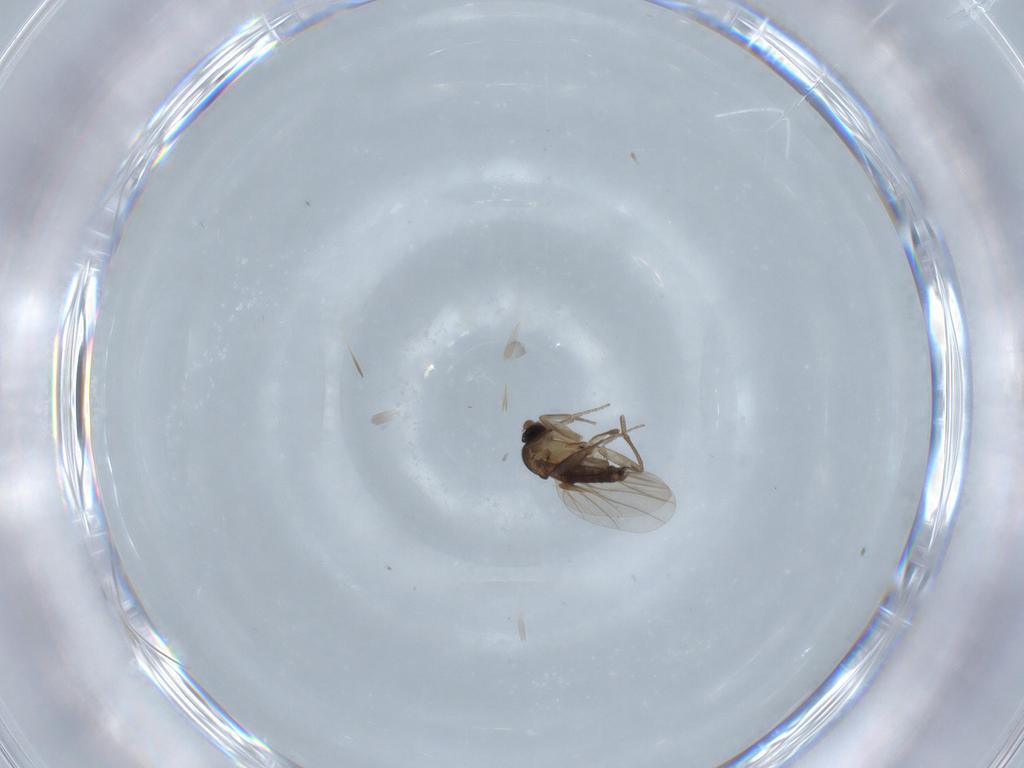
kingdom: Animalia
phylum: Arthropoda
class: Insecta
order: Diptera
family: Phoridae
